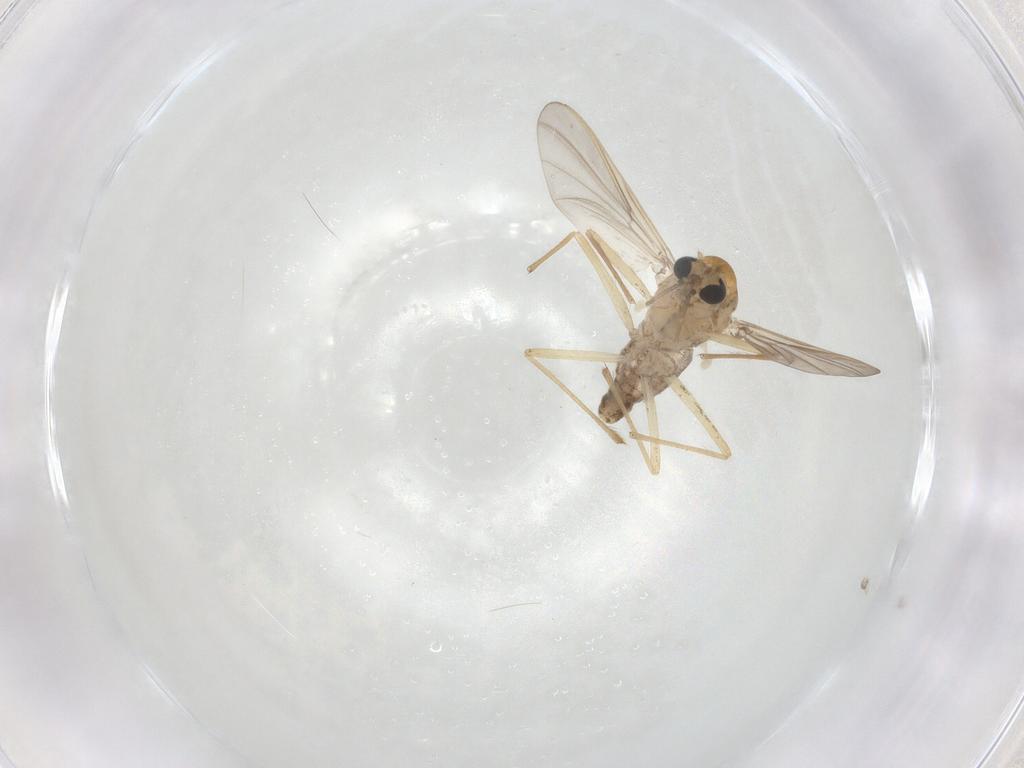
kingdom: Animalia
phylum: Arthropoda
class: Insecta
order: Diptera
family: Chironomidae
